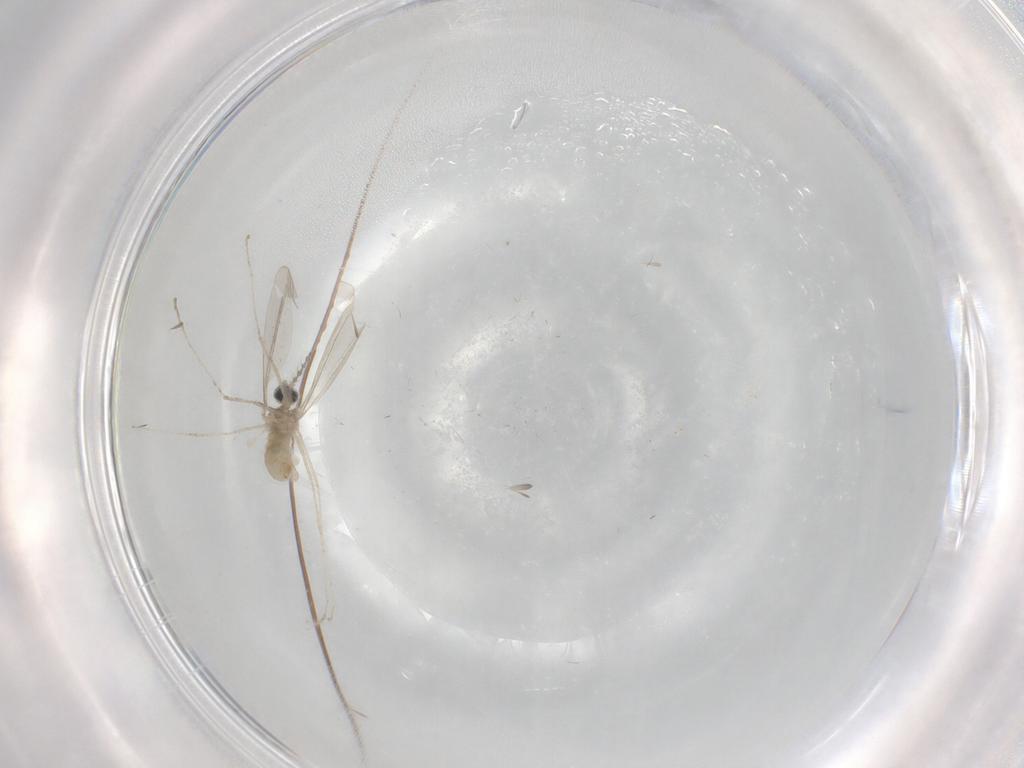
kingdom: Animalia
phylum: Arthropoda
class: Insecta
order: Diptera
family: Cecidomyiidae
